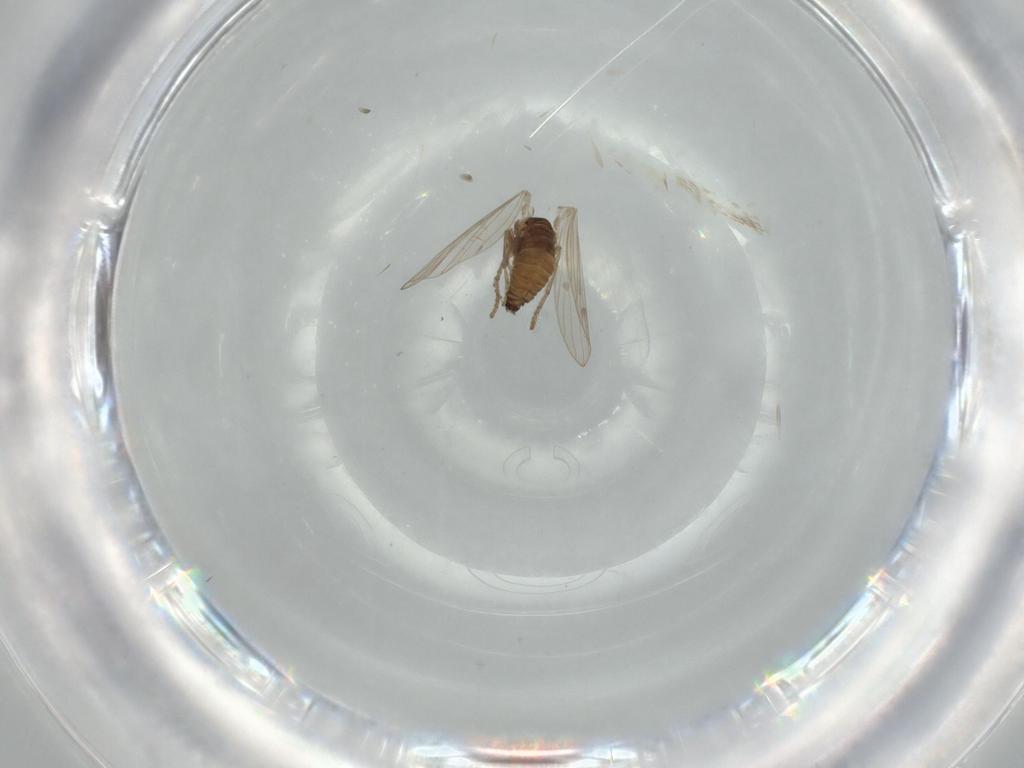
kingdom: Animalia
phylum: Arthropoda
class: Insecta
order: Diptera
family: Psychodidae
